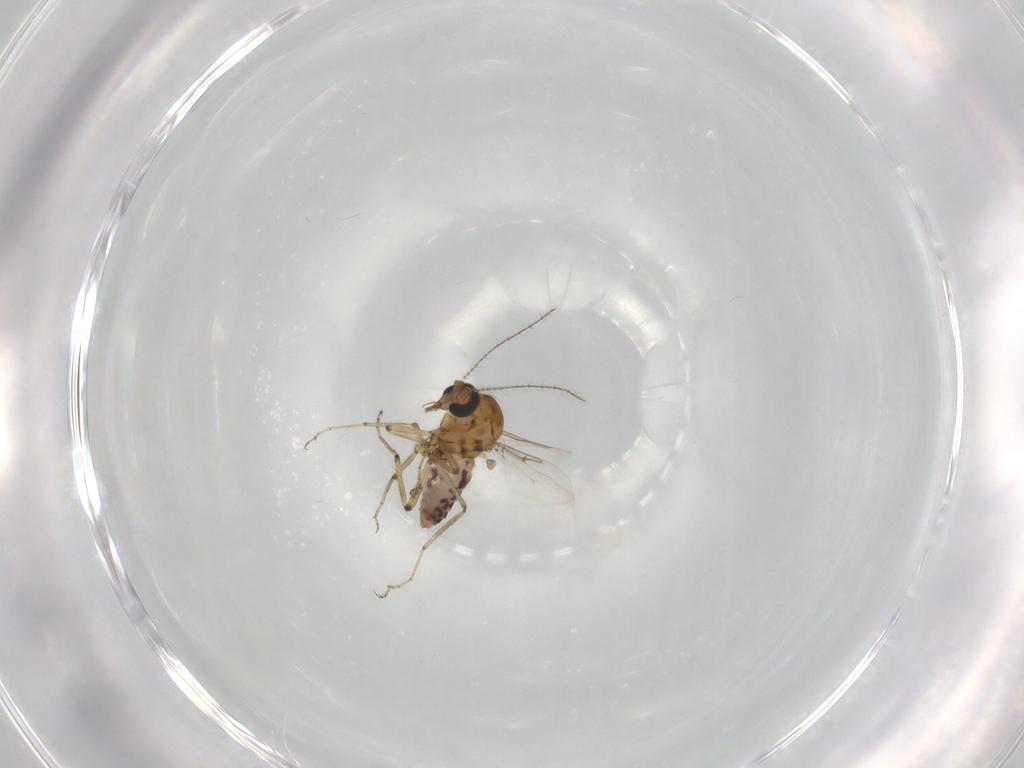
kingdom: Animalia
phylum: Arthropoda
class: Insecta
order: Diptera
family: Ceratopogonidae
